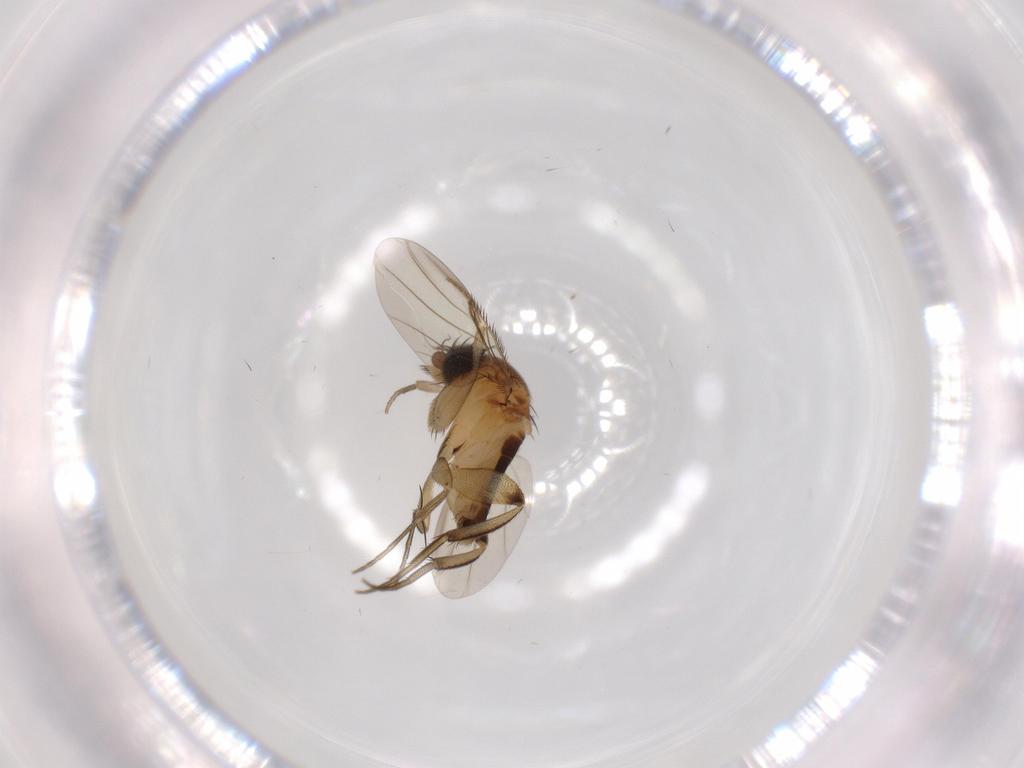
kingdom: Animalia
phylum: Arthropoda
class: Insecta
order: Diptera
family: Phoridae
